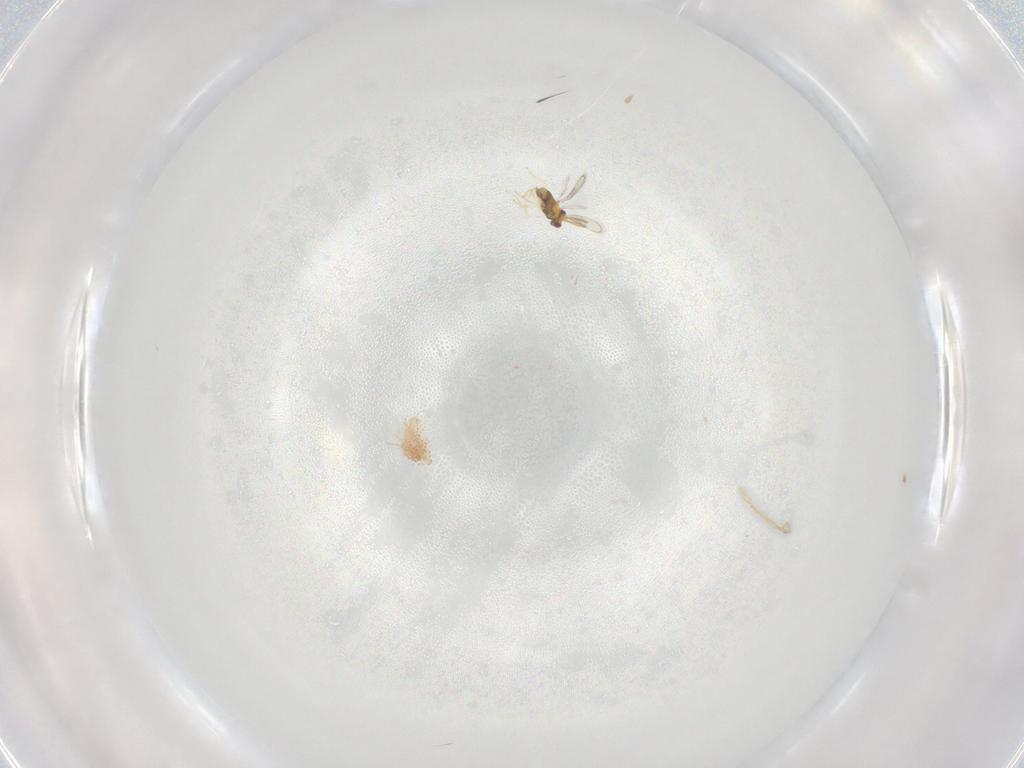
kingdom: Animalia
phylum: Arthropoda
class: Insecta
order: Hymenoptera
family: Aphelinidae
